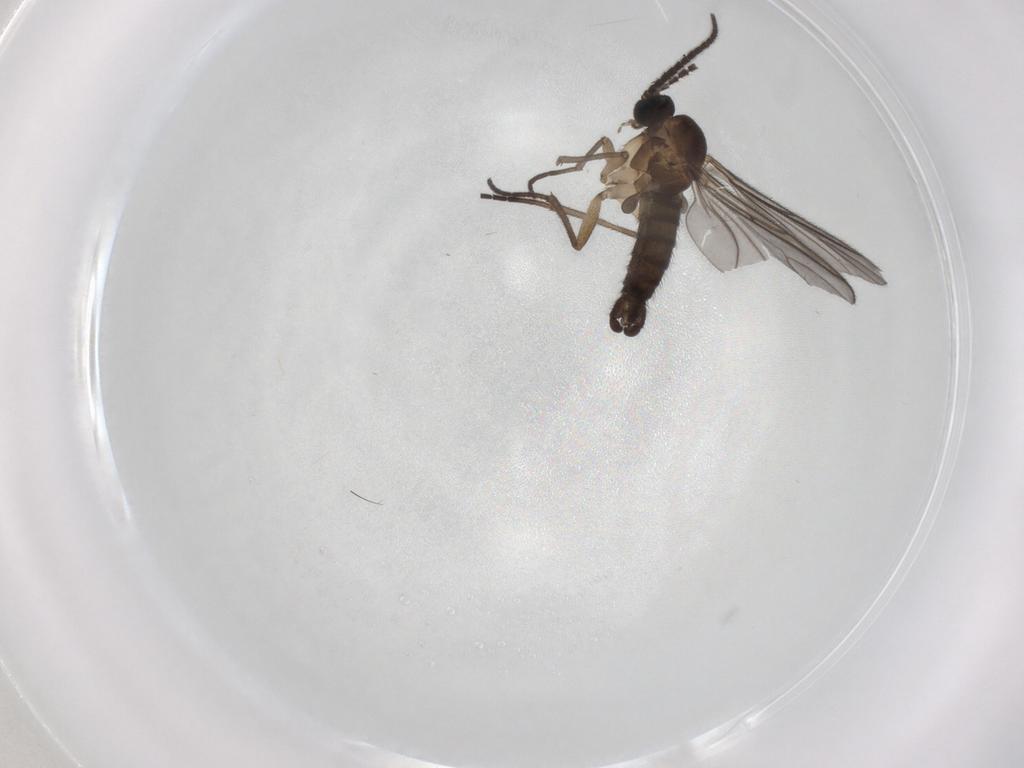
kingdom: Animalia
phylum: Arthropoda
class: Insecta
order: Diptera
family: Sciaridae
